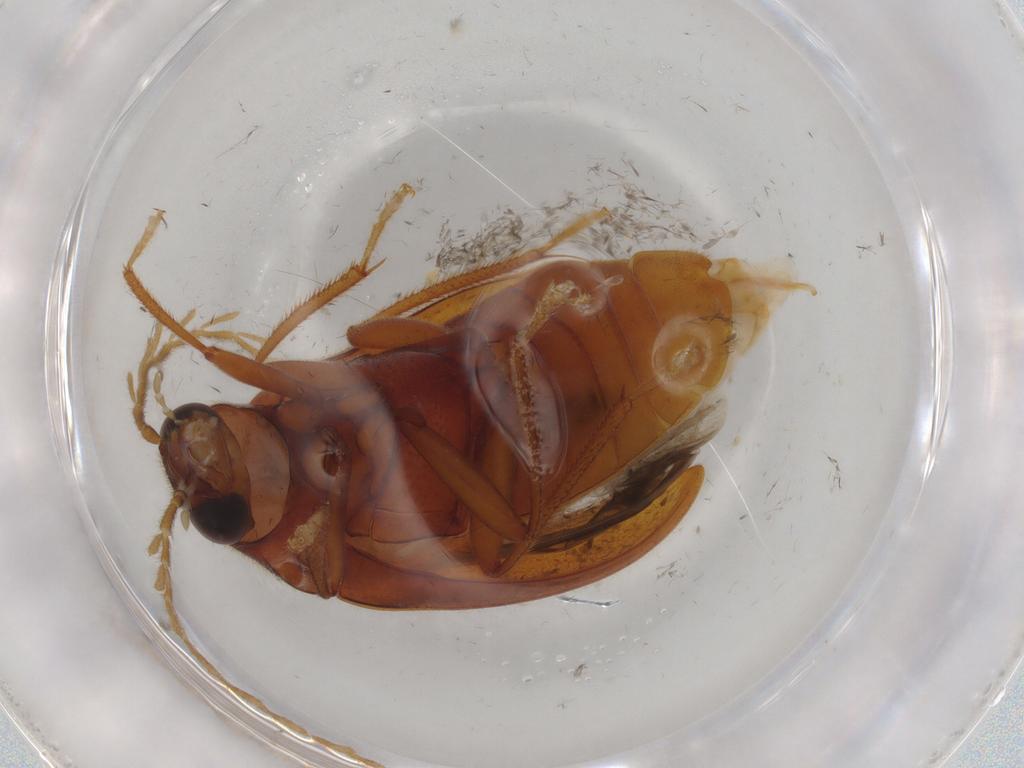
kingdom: Animalia
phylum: Arthropoda
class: Insecta
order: Coleoptera
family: Ptilodactylidae
